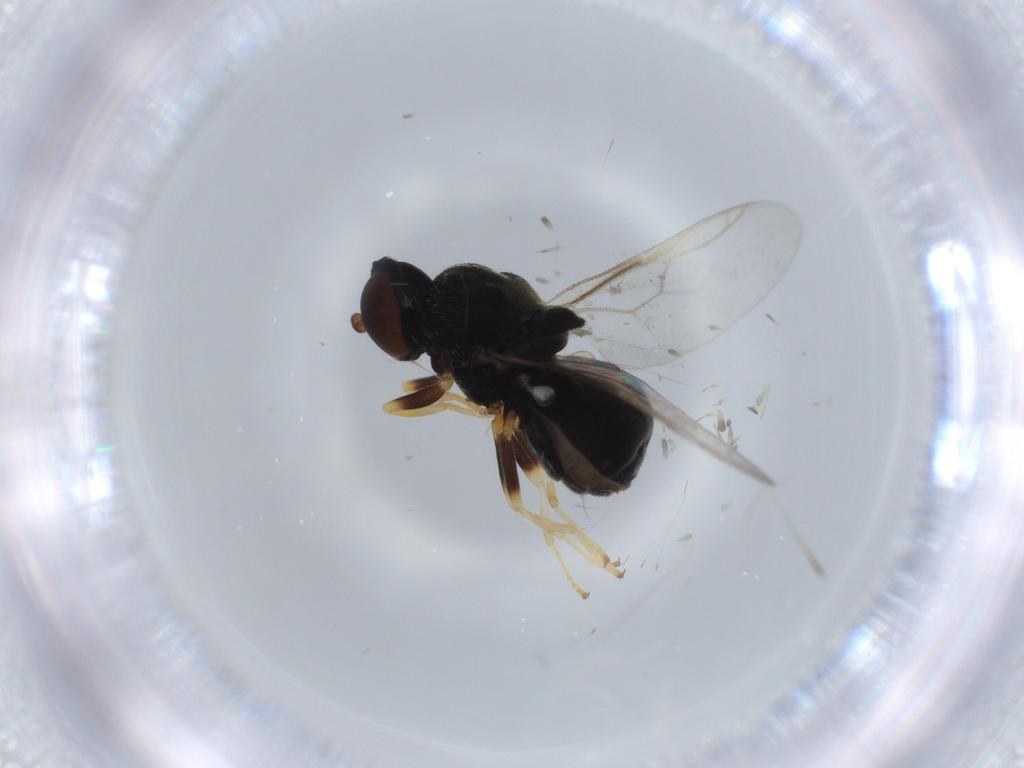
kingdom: Animalia
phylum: Arthropoda
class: Insecta
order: Diptera
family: Stratiomyidae
